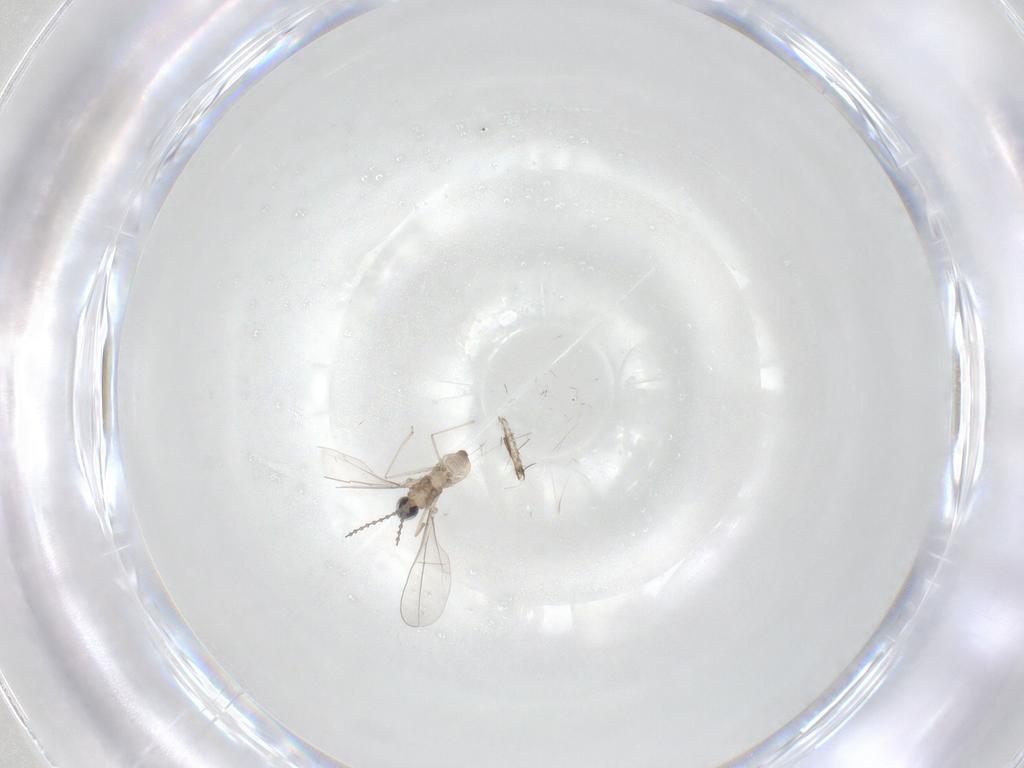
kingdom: Animalia
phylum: Arthropoda
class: Insecta
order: Diptera
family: Cecidomyiidae
